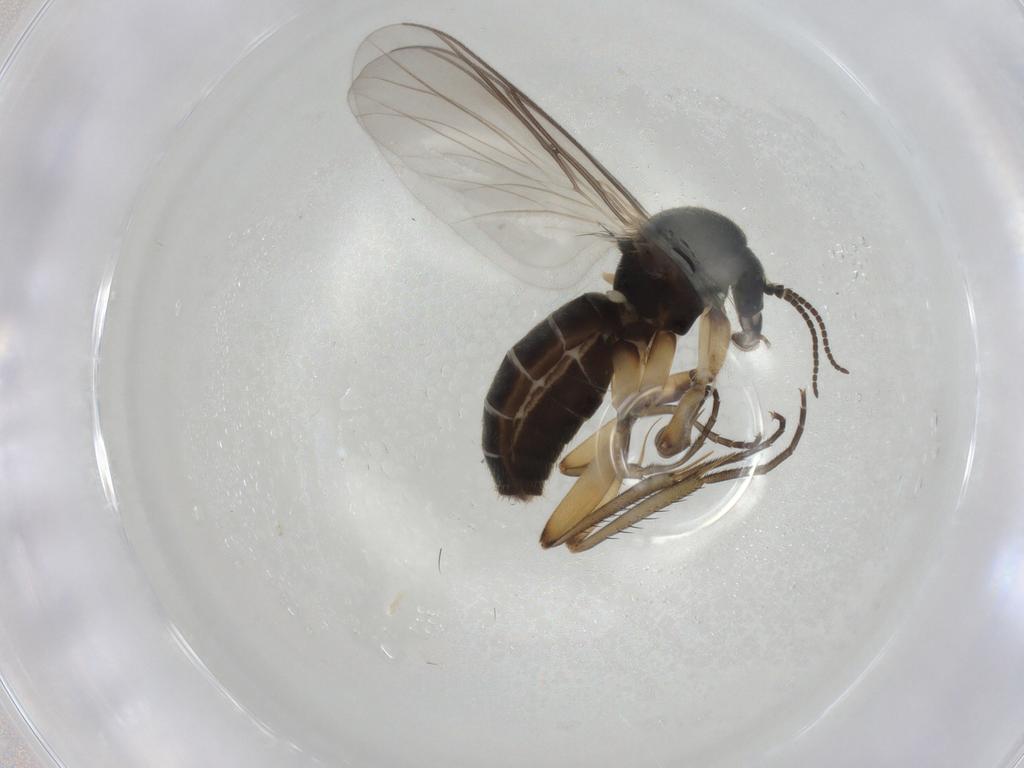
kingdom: Animalia
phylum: Arthropoda
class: Insecta
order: Diptera
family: Mycetophilidae
